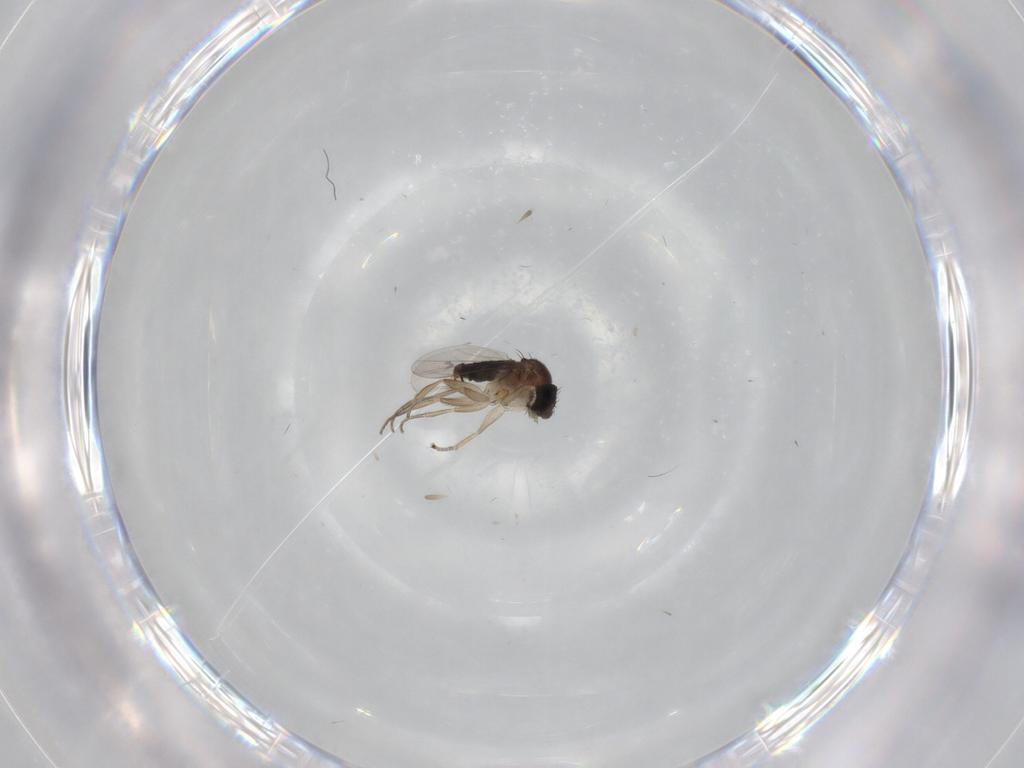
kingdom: Animalia
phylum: Arthropoda
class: Insecta
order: Diptera
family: Phoridae
